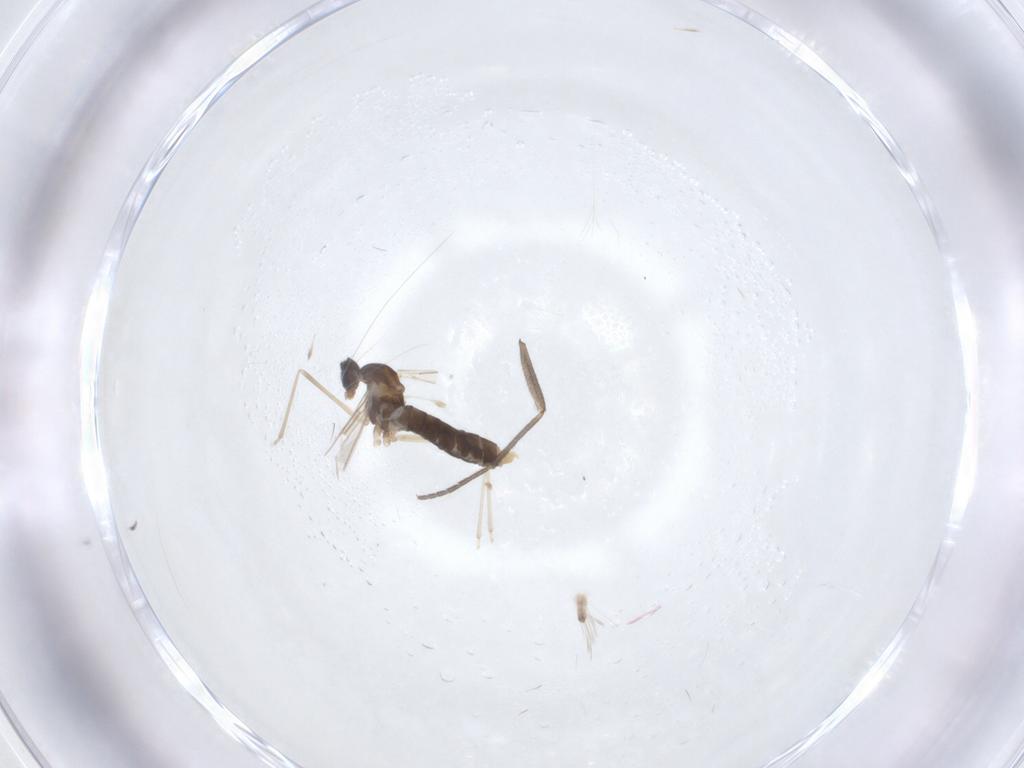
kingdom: Animalia
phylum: Arthropoda
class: Insecta
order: Diptera
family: Cecidomyiidae
